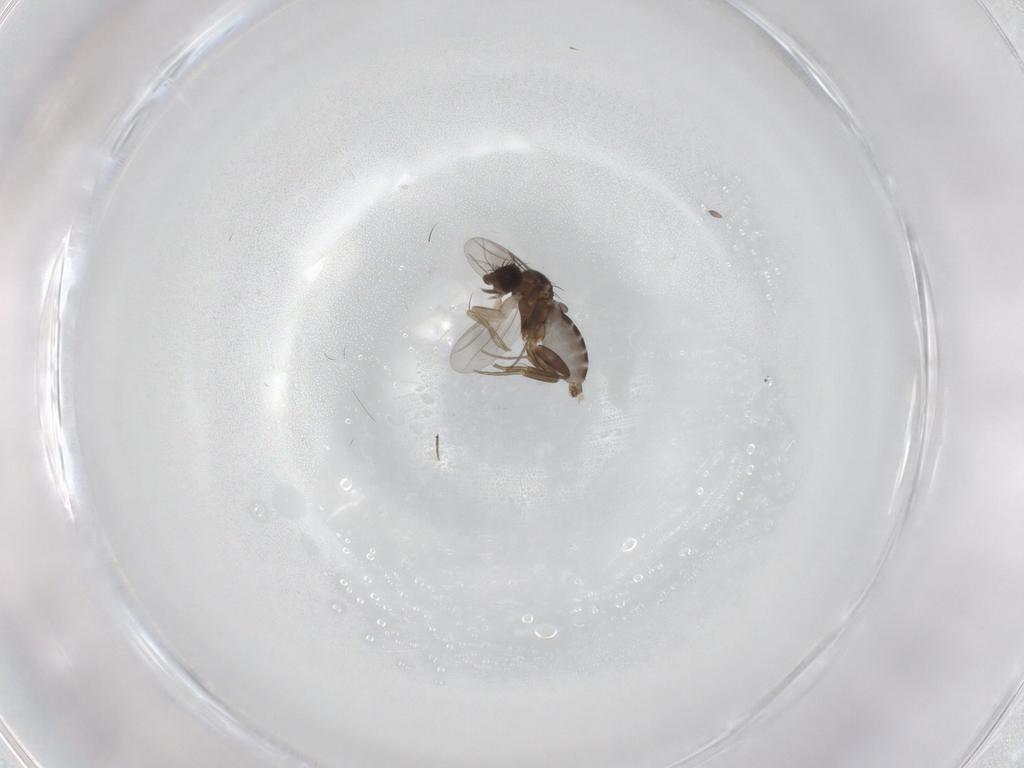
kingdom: Animalia
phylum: Arthropoda
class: Insecta
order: Diptera
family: Phoridae
